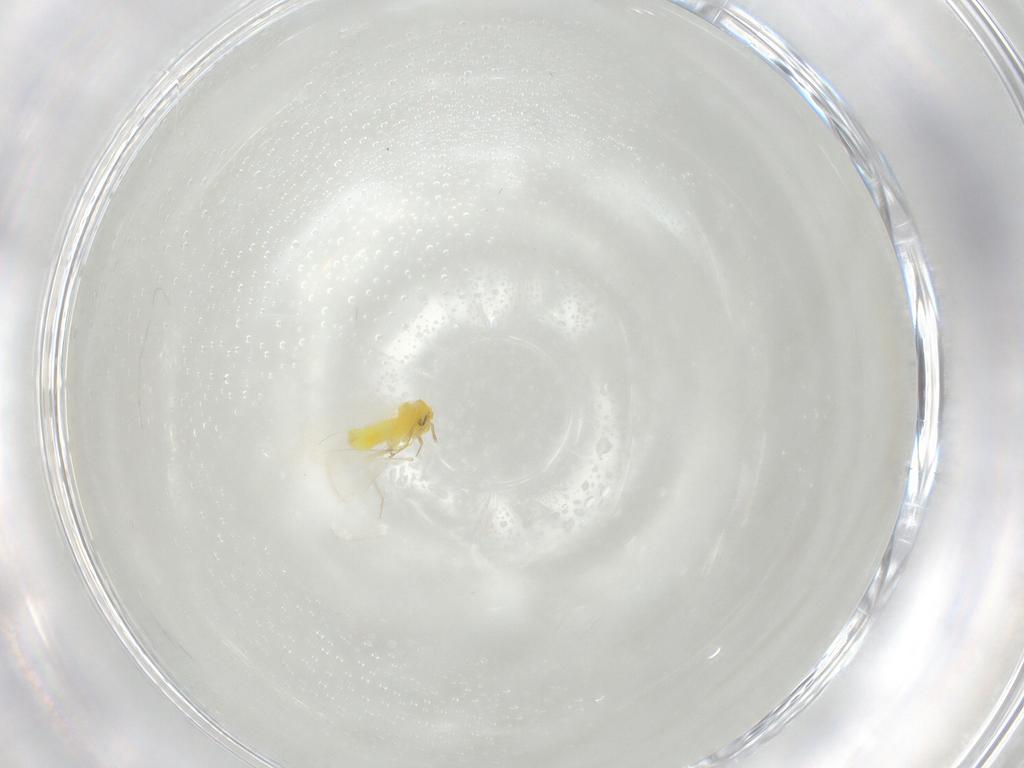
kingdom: Animalia
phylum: Arthropoda
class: Insecta
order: Hemiptera
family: Aleyrodidae
